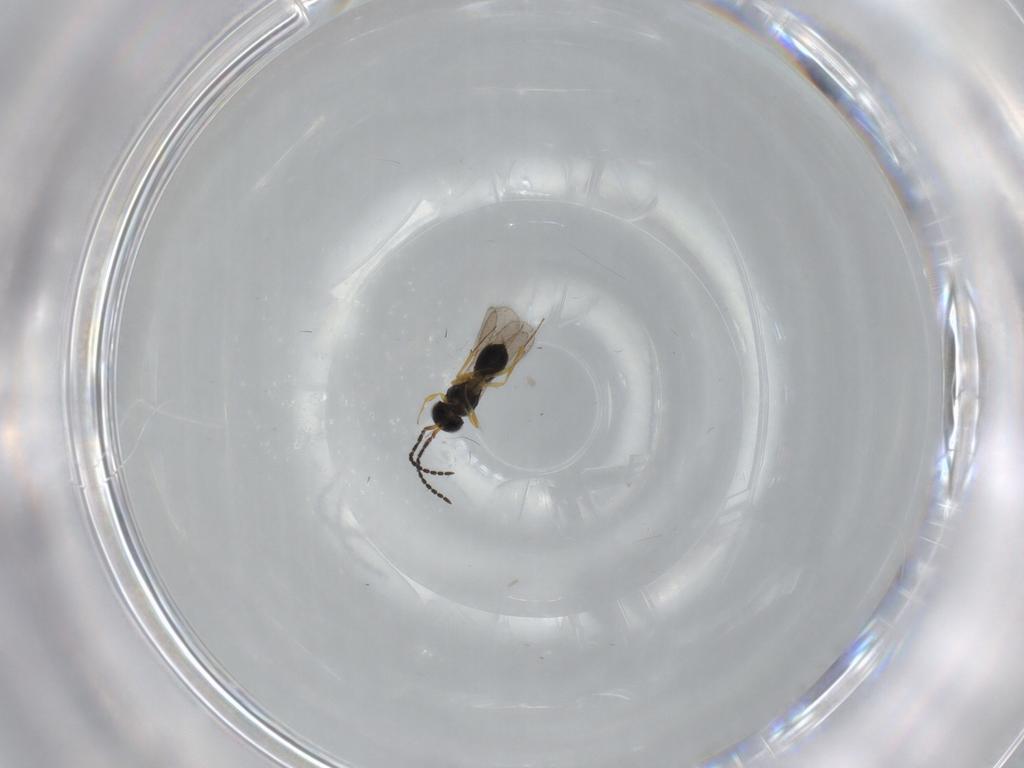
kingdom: Animalia
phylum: Arthropoda
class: Insecta
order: Hymenoptera
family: Scelionidae
